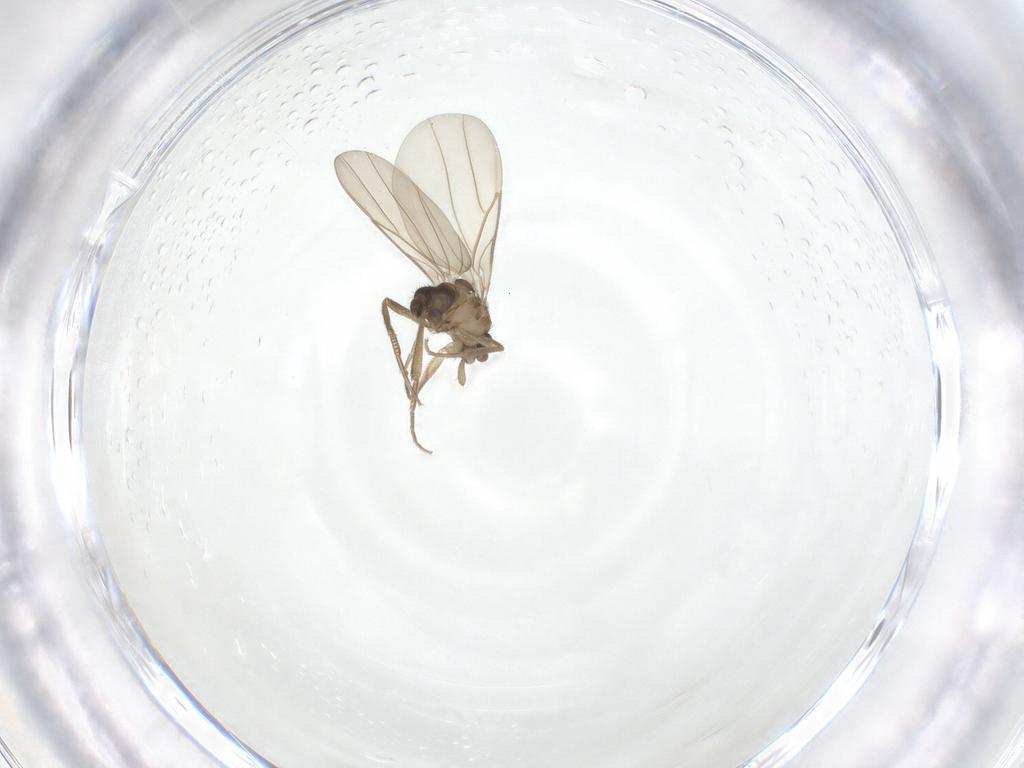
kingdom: Animalia
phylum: Arthropoda
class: Insecta
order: Diptera
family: Phoridae
